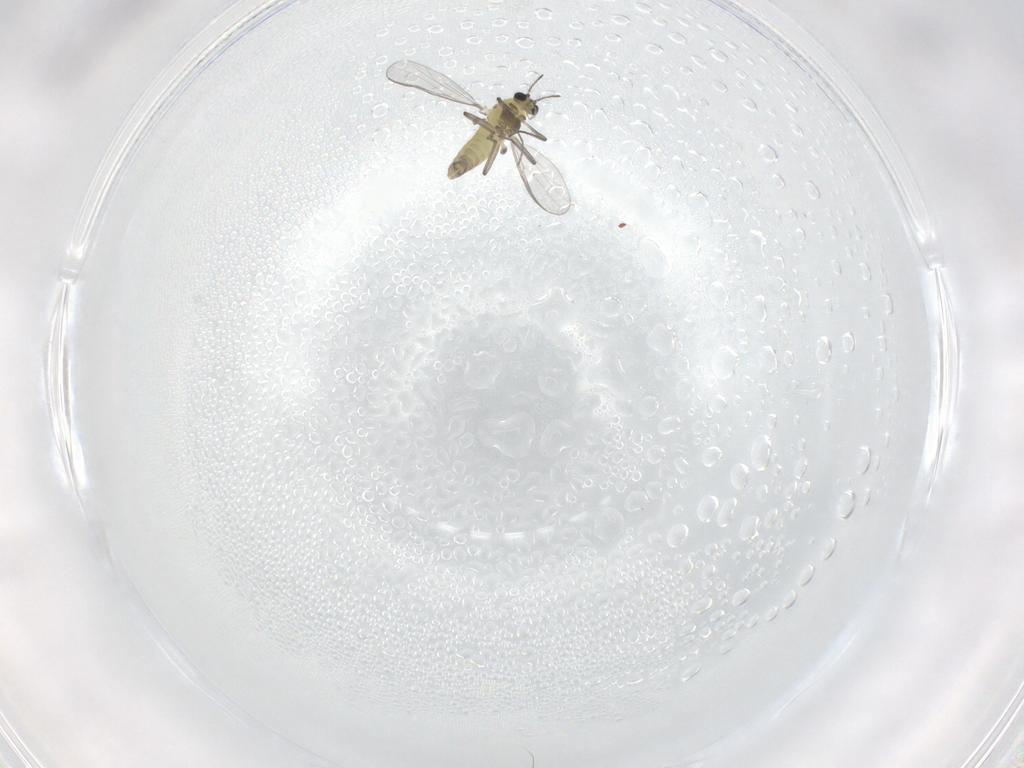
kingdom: Animalia
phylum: Arthropoda
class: Insecta
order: Diptera
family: Chironomidae
